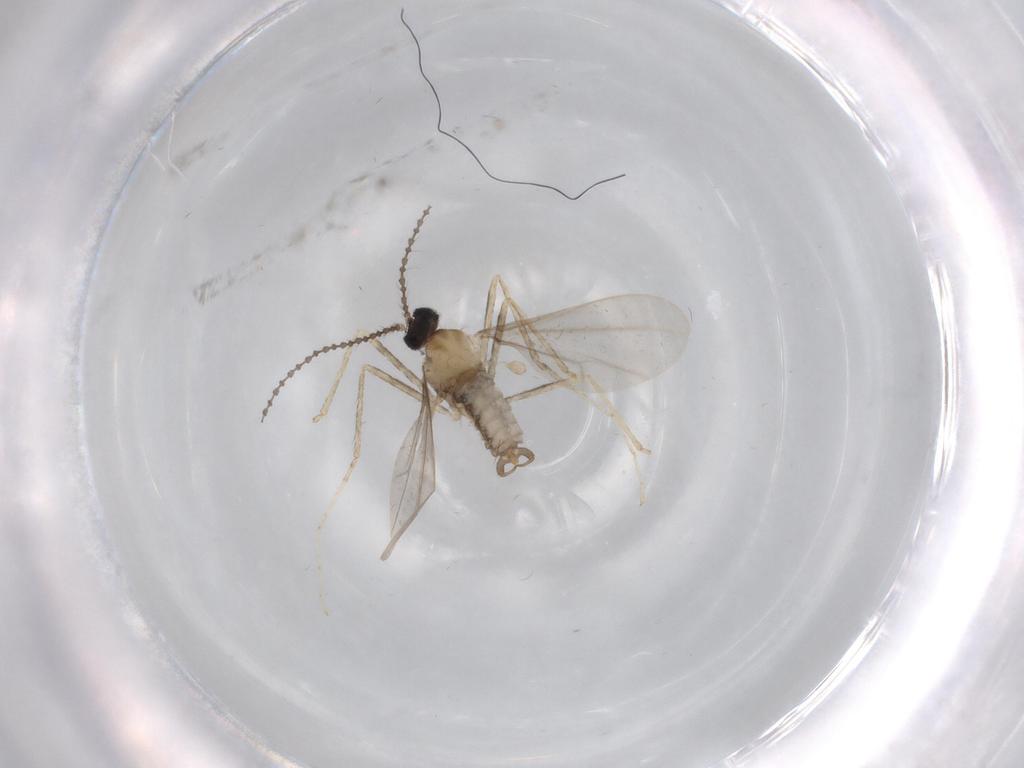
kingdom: Animalia
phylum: Arthropoda
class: Insecta
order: Diptera
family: Cecidomyiidae
